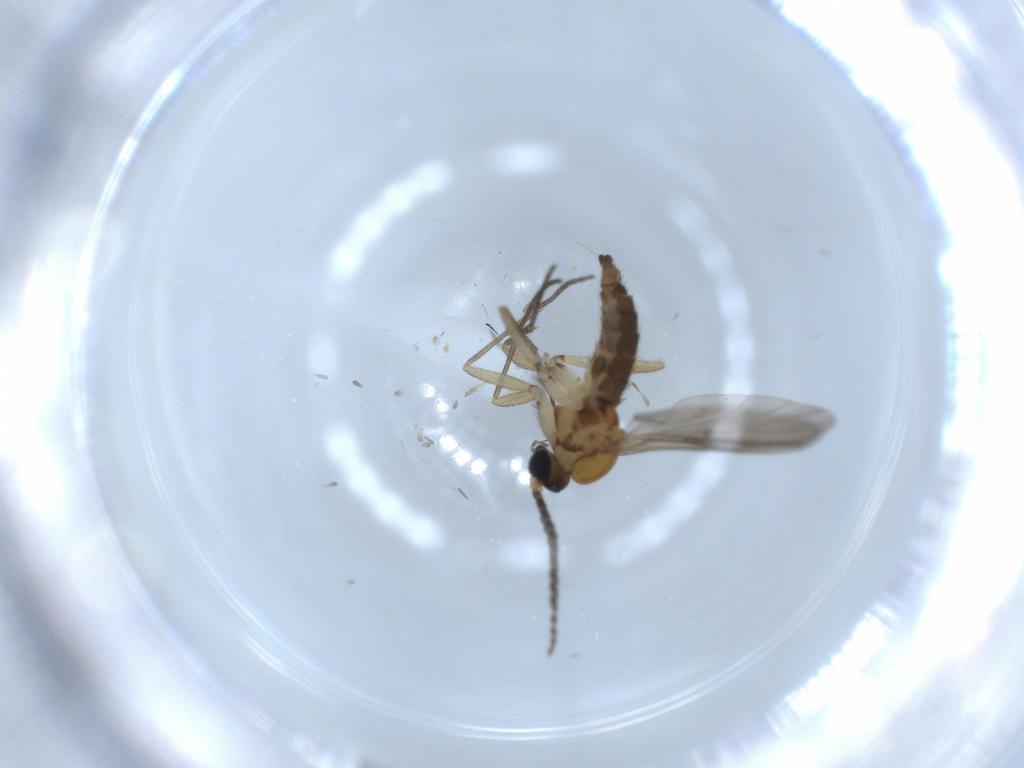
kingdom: Animalia
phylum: Arthropoda
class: Insecta
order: Diptera
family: Sciaridae
